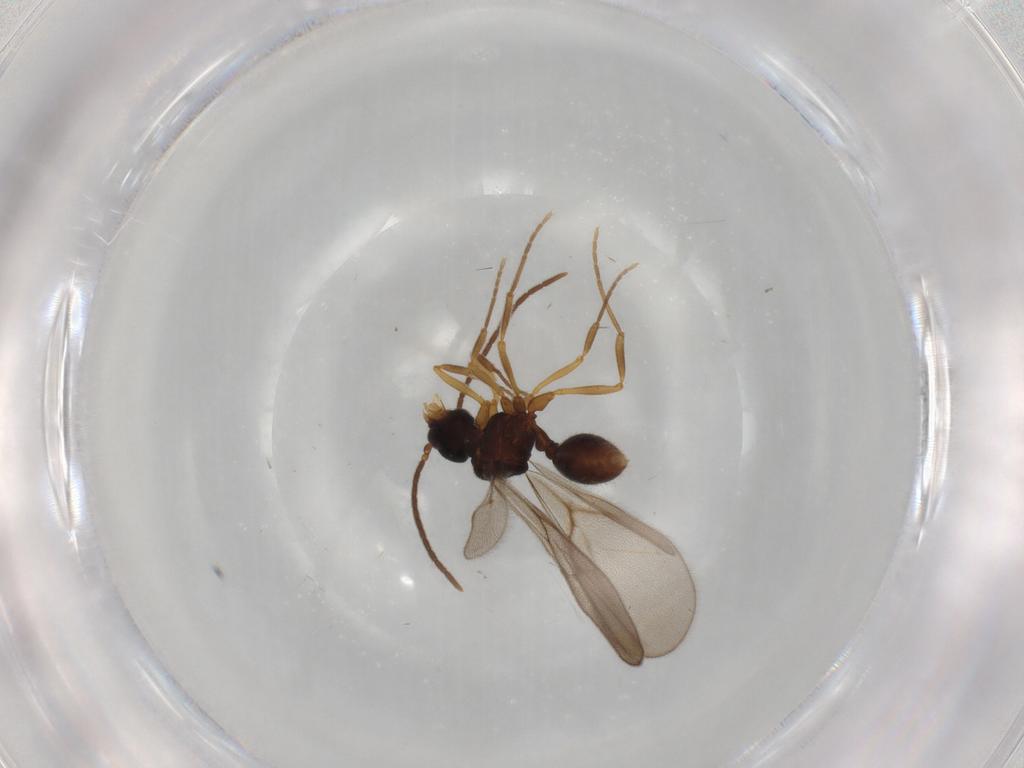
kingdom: Animalia
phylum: Arthropoda
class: Insecta
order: Hymenoptera
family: Formicidae
